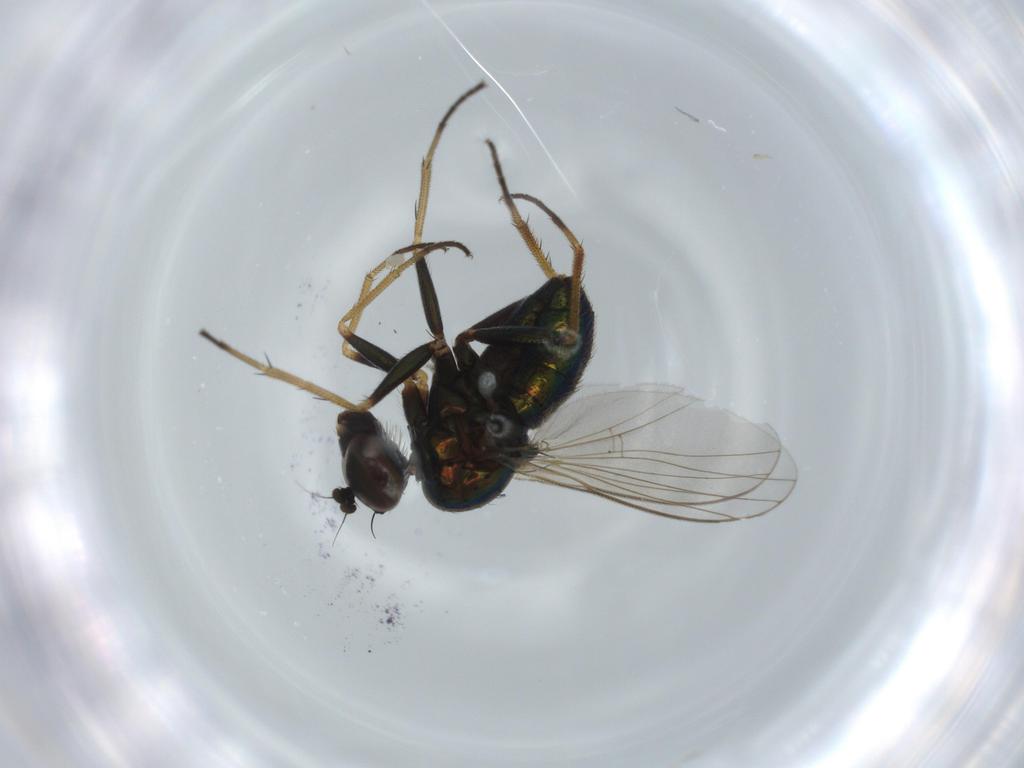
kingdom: Animalia
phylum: Arthropoda
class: Insecta
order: Diptera
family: Dolichopodidae
